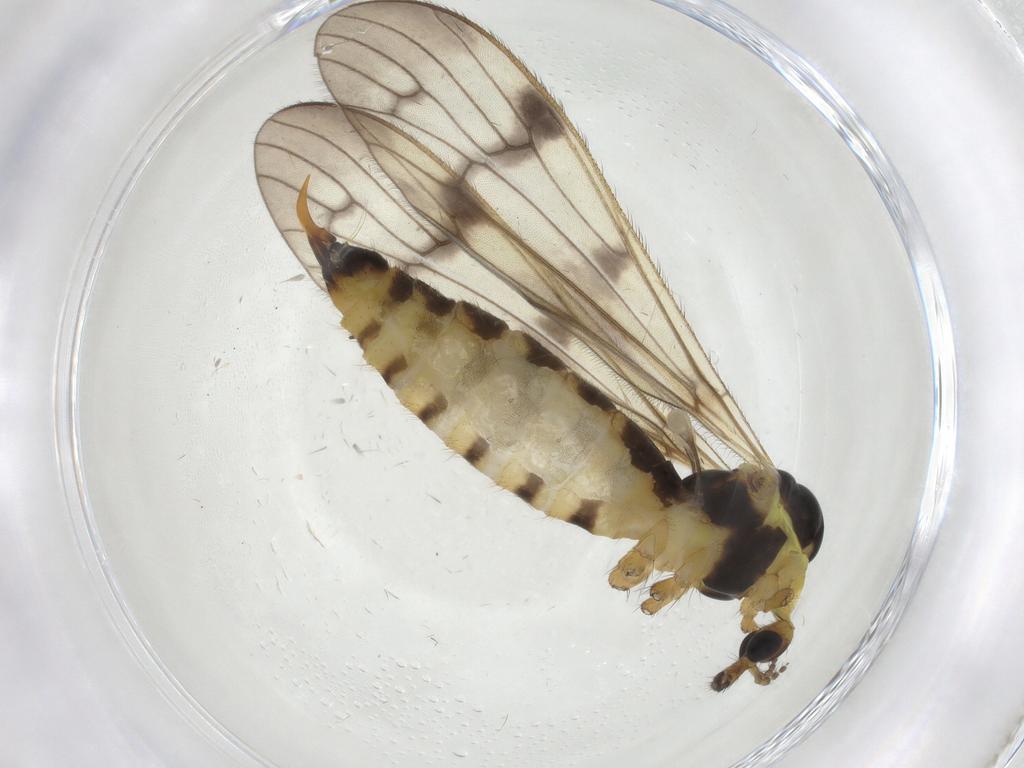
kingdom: Animalia
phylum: Arthropoda
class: Insecta
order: Diptera
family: Limoniidae
